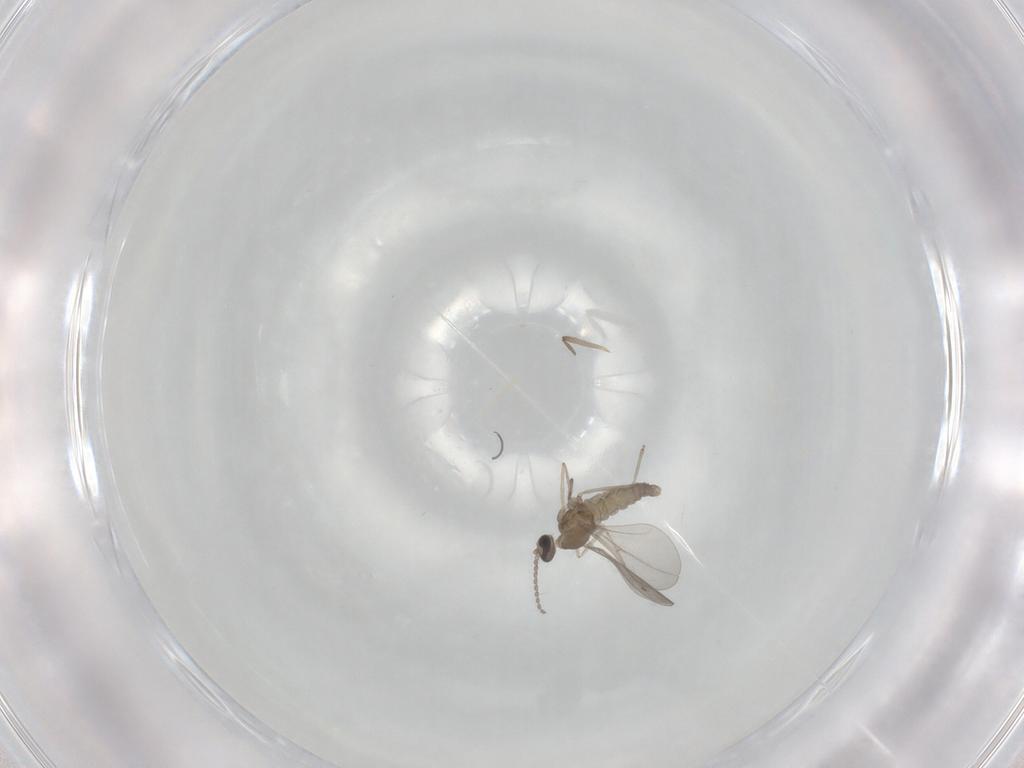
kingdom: Animalia
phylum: Arthropoda
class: Insecta
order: Diptera
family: Cecidomyiidae
